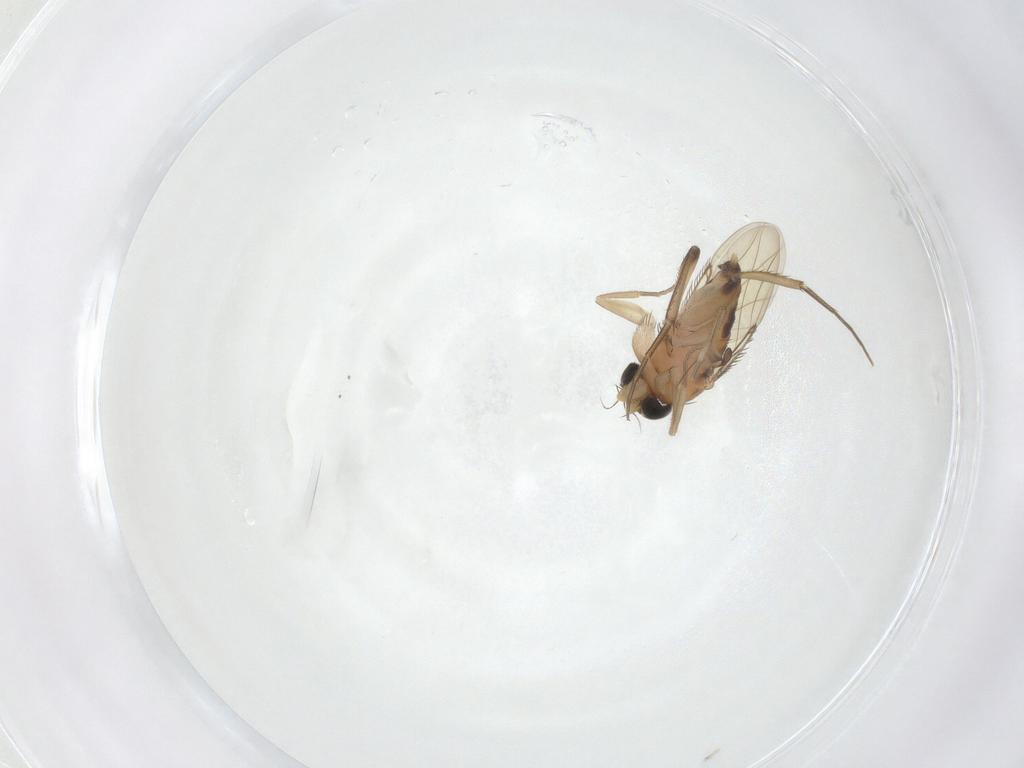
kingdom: Animalia
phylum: Arthropoda
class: Insecta
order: Diptera
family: Phoridae
